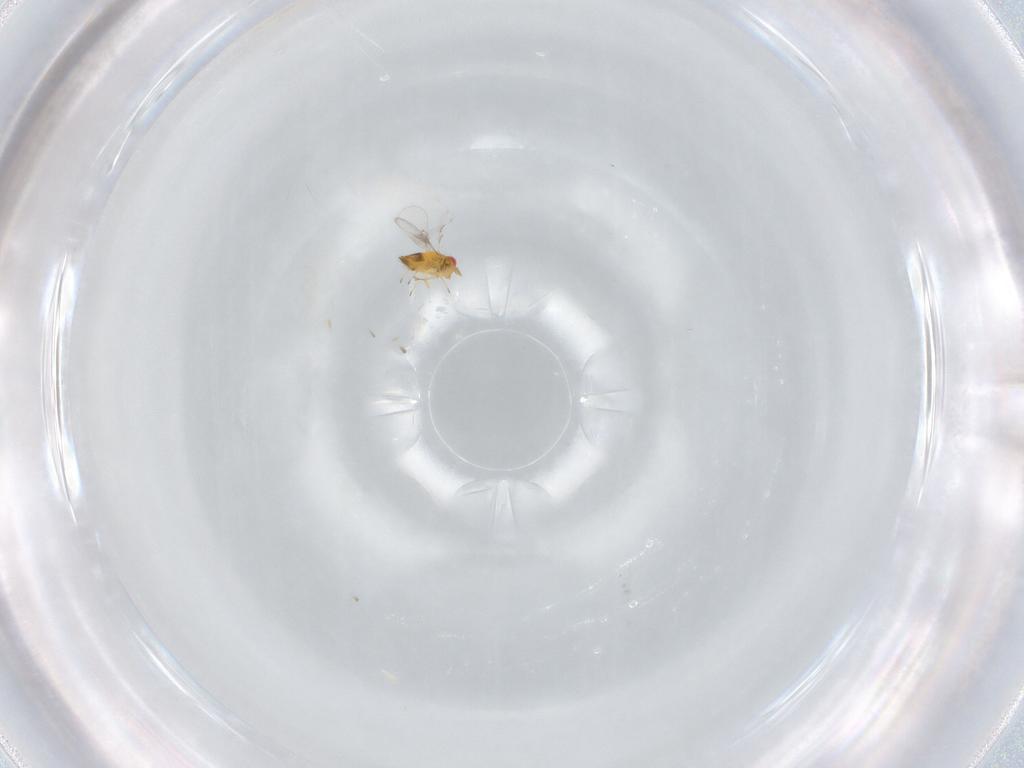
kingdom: Animalia
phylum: Arthropoda
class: Insecta
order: Hymenoptera
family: Trichogrammatidae
